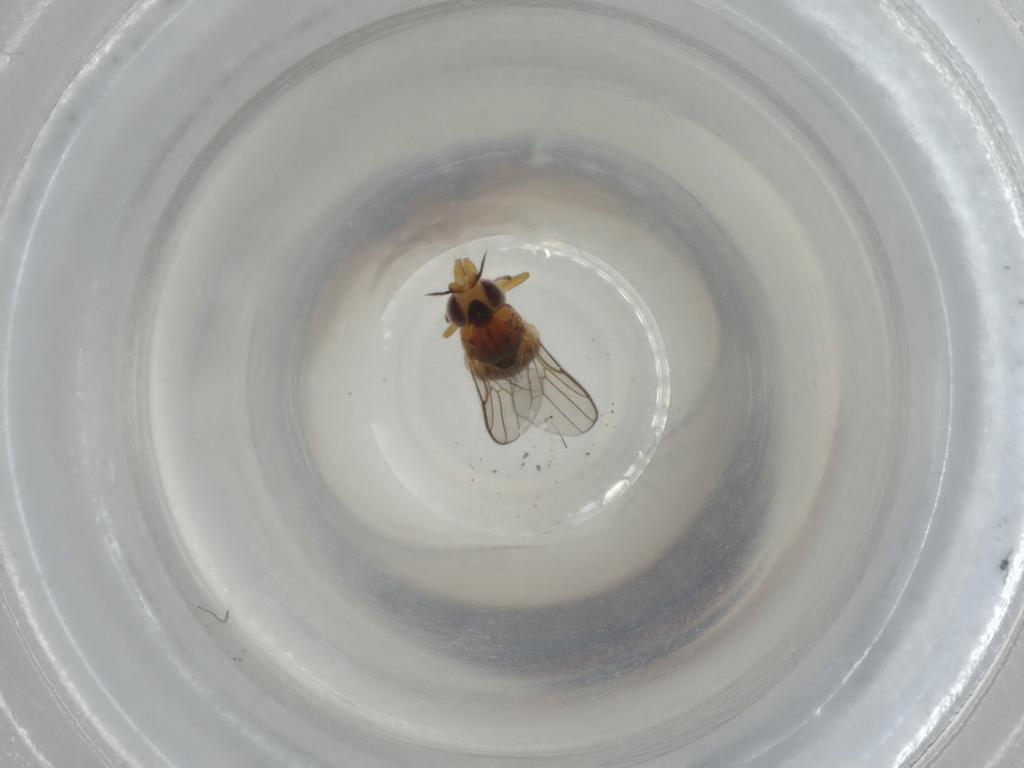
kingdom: Animalia
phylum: Arthropoda
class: Insecta
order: Diptera
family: Chloropidae
